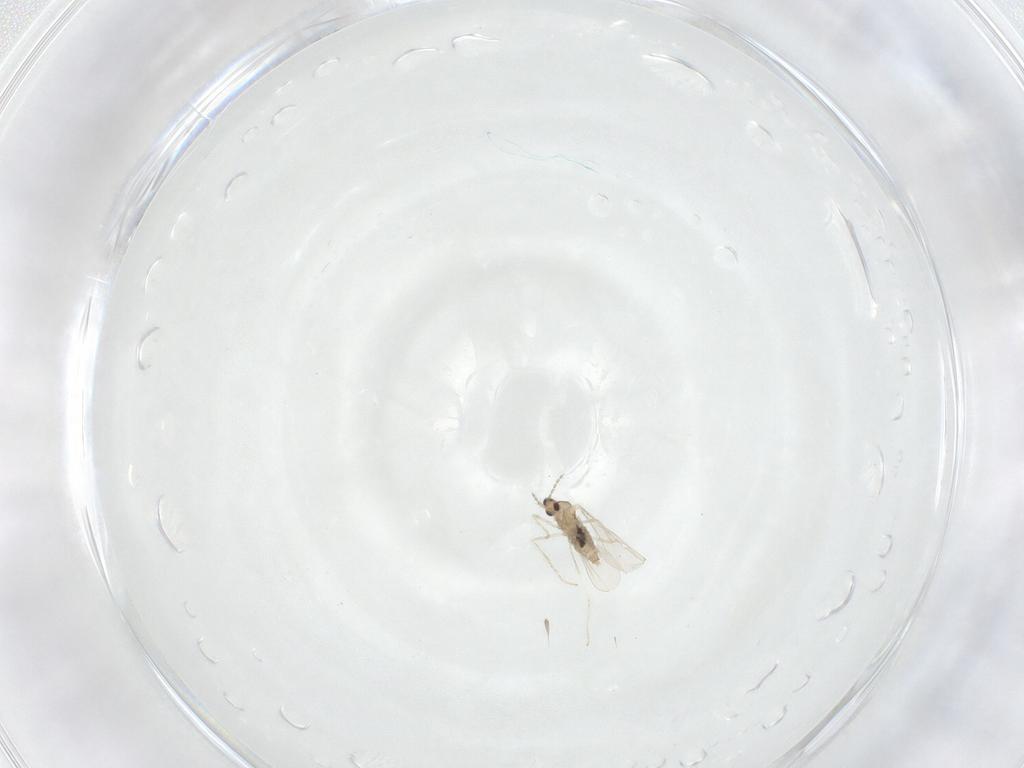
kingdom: Animalia
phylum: Arthropoda
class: Insecta
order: Diptera
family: Cecidomyiidae
